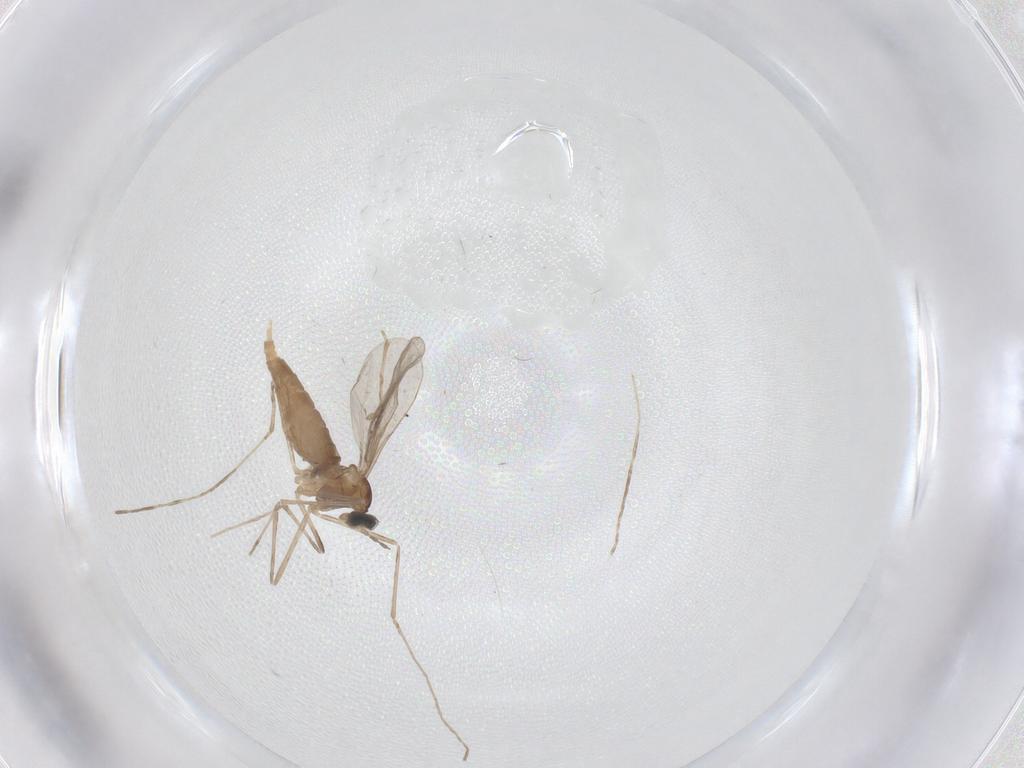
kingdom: Animalia
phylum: Arthropoda
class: Insecta
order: Diptera
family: Cecidomyiidae
